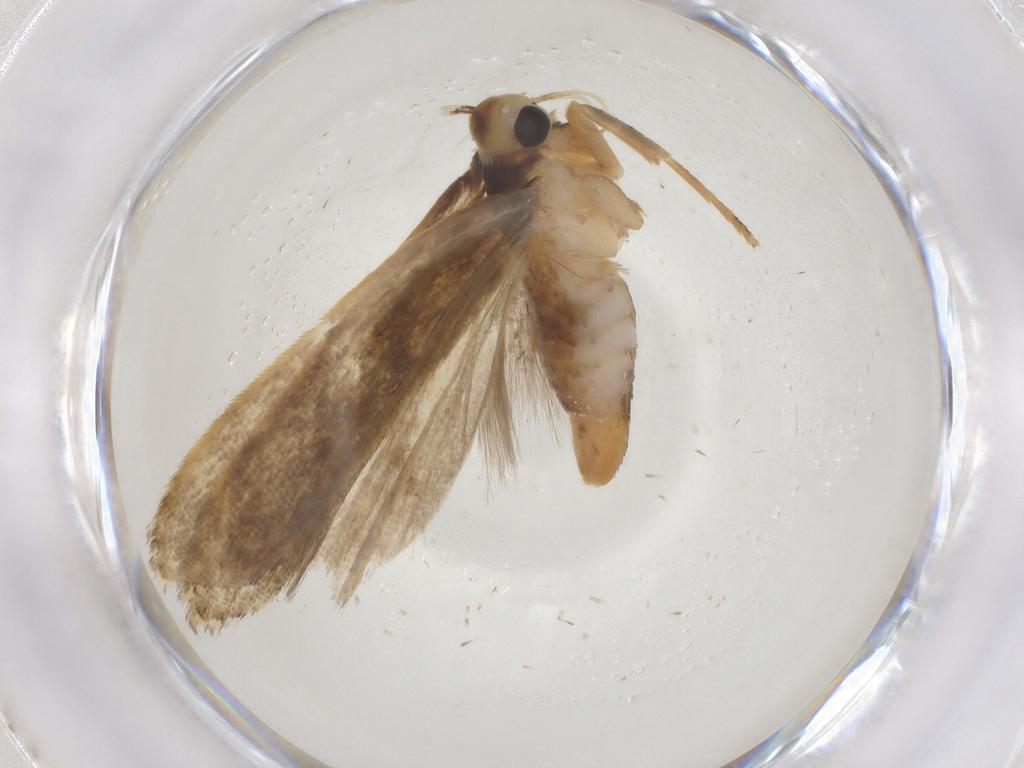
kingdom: Animalia
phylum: Arthropoda
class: Insecta
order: Lepidoptera
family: Gelechiidae
